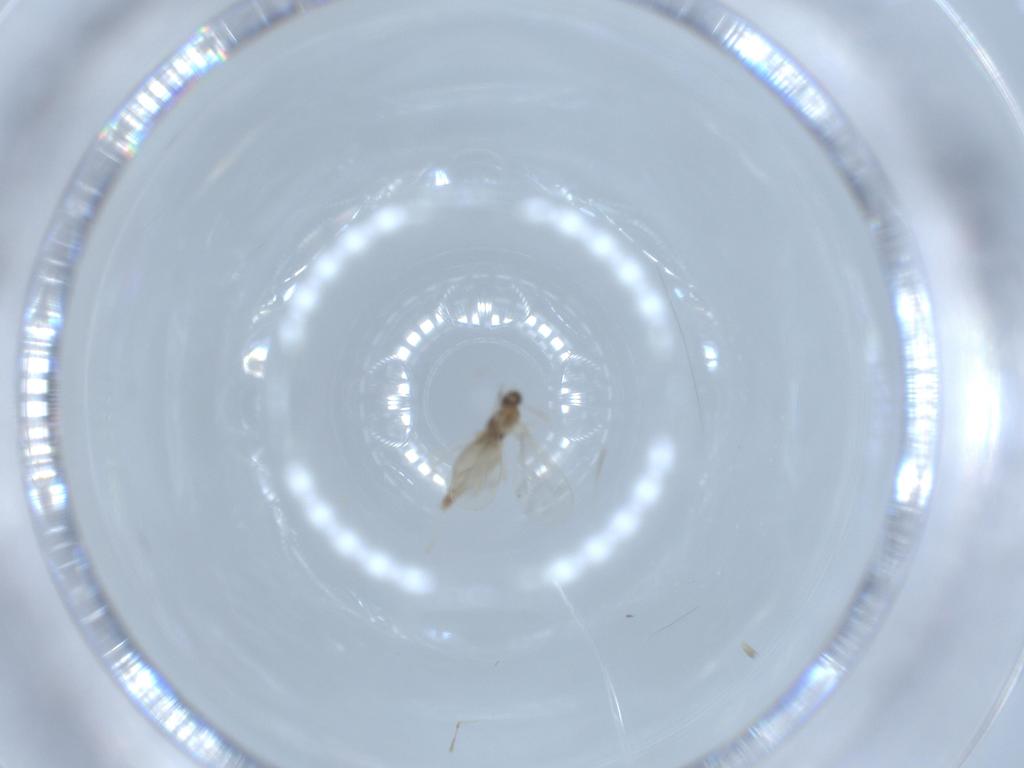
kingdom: Animalia
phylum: Arthropoda
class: Insecta
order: Diptera
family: Cecidomyiidae
